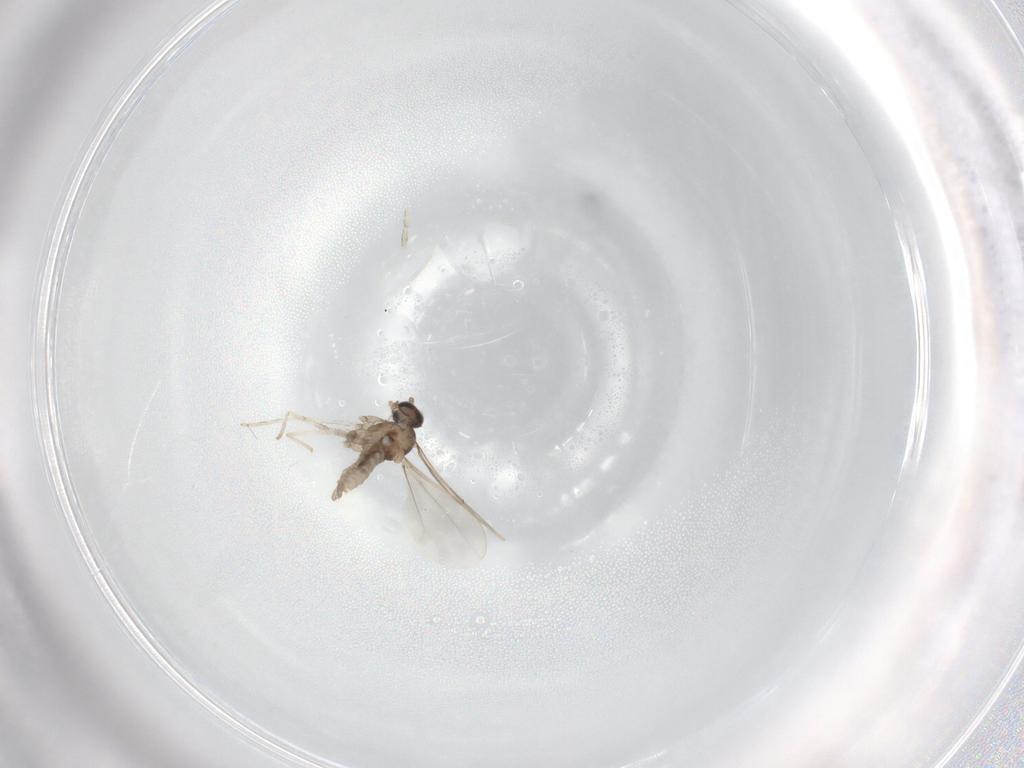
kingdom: Animalia
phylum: Arthropoda
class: Insecta
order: Diptera
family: Cecidomyiidae
